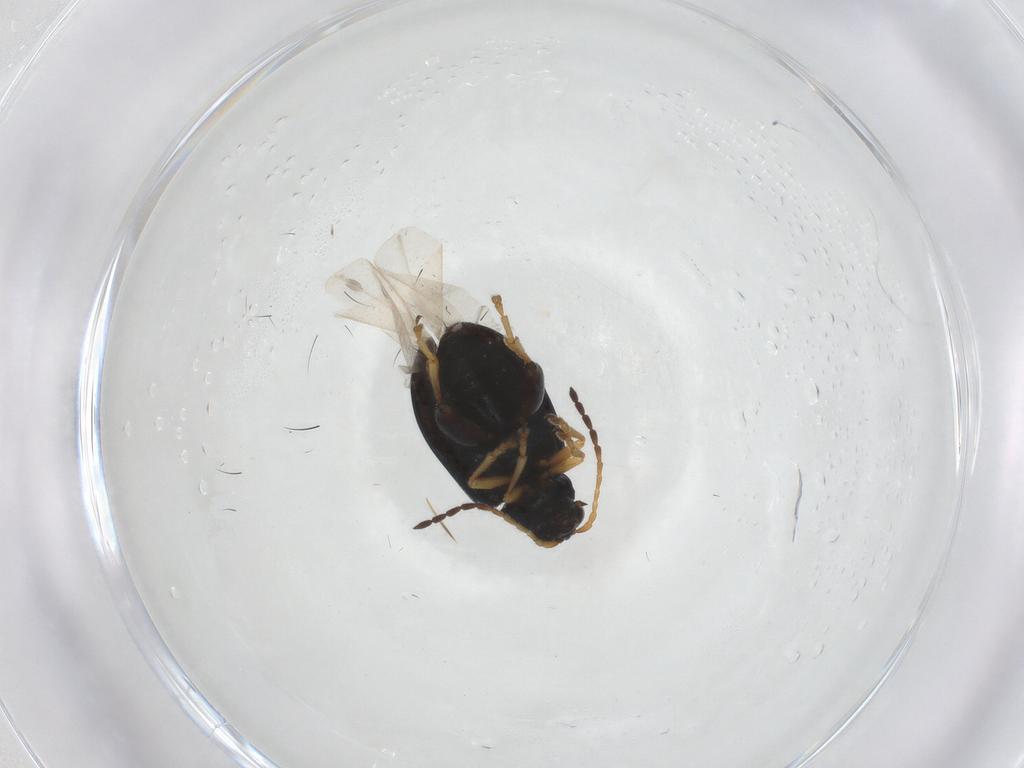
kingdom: Animalia
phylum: Arthropoda
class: Insecta
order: Coleoptera
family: Chrysomelidae
